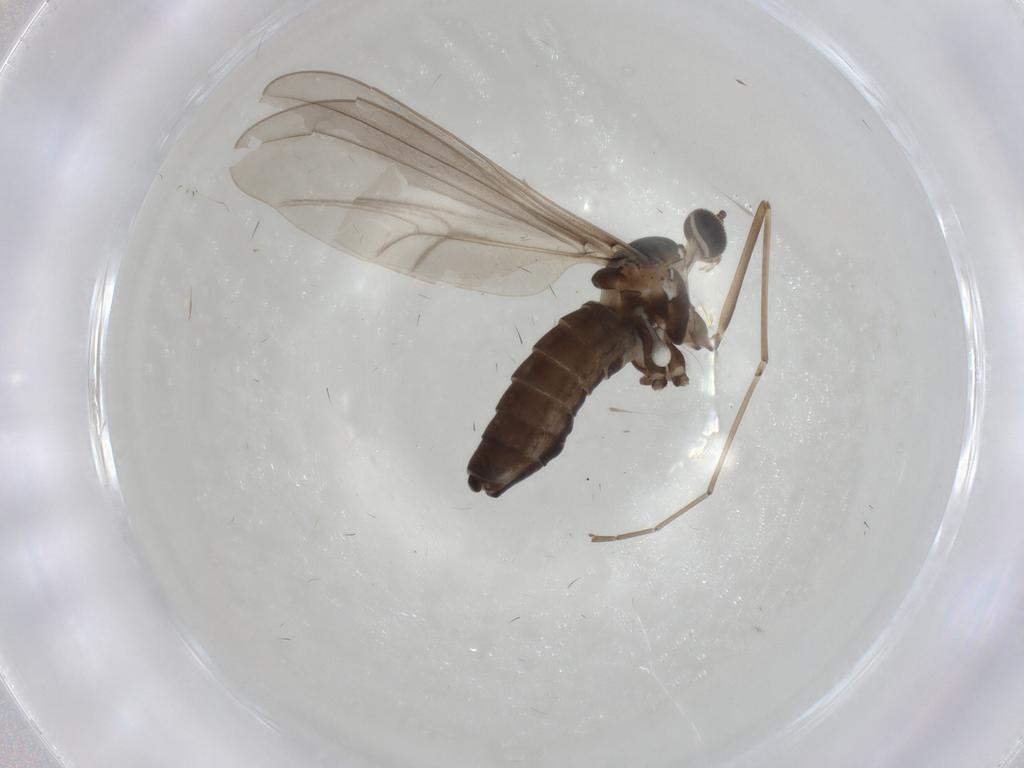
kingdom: Animalia
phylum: Arthropoda
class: Insecta
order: Diptera
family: Cecidomyiidae
